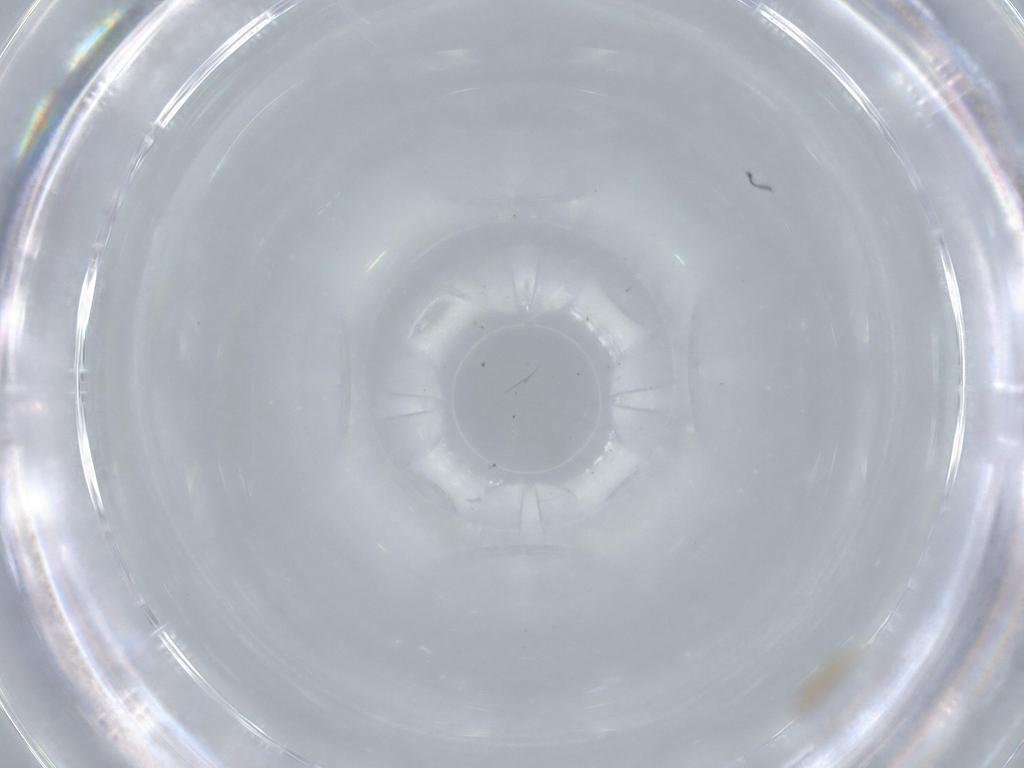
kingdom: Animalia
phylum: Arthropoda
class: Insecta
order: Diptera
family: Cecidomyiidae
